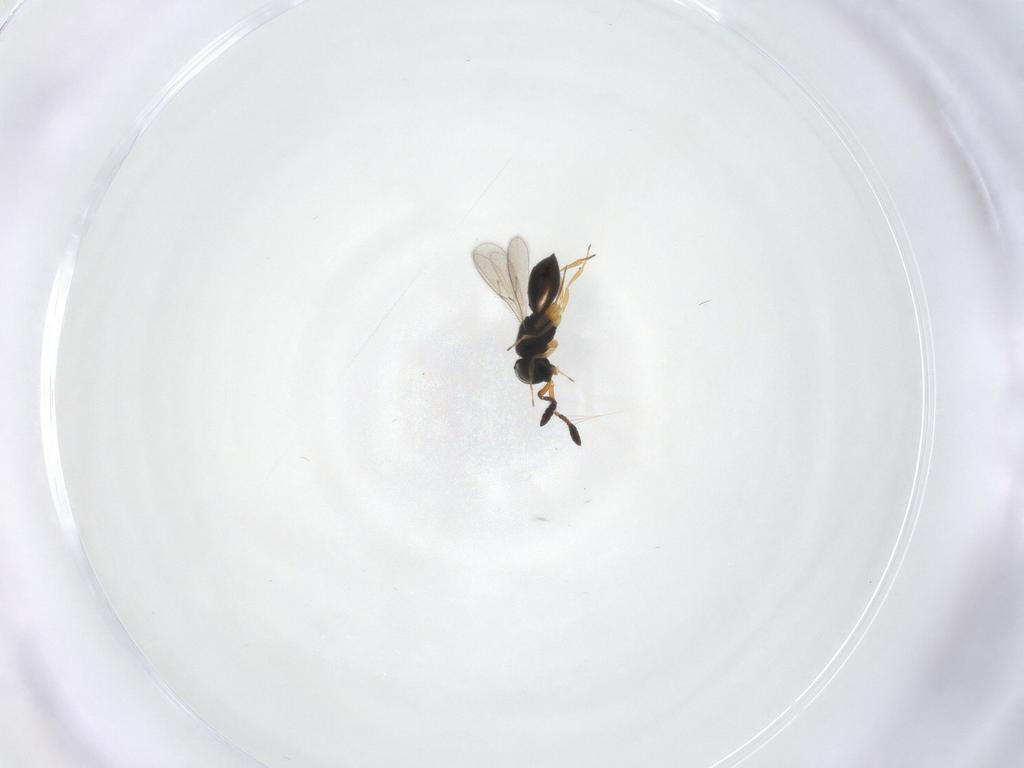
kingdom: Animalia
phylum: Arthropoda
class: Insecta
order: Hymenoptera
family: Scelionidae
